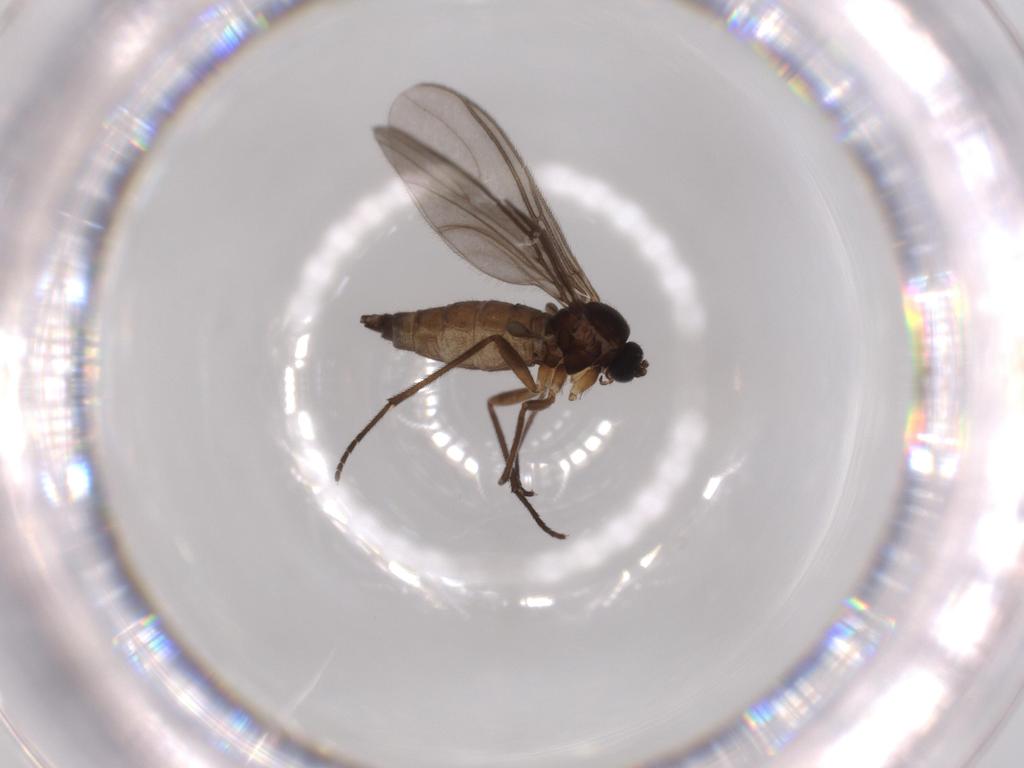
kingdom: Animalia
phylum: Arthropoda
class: Insecta
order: Diptera
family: Sciaridae
